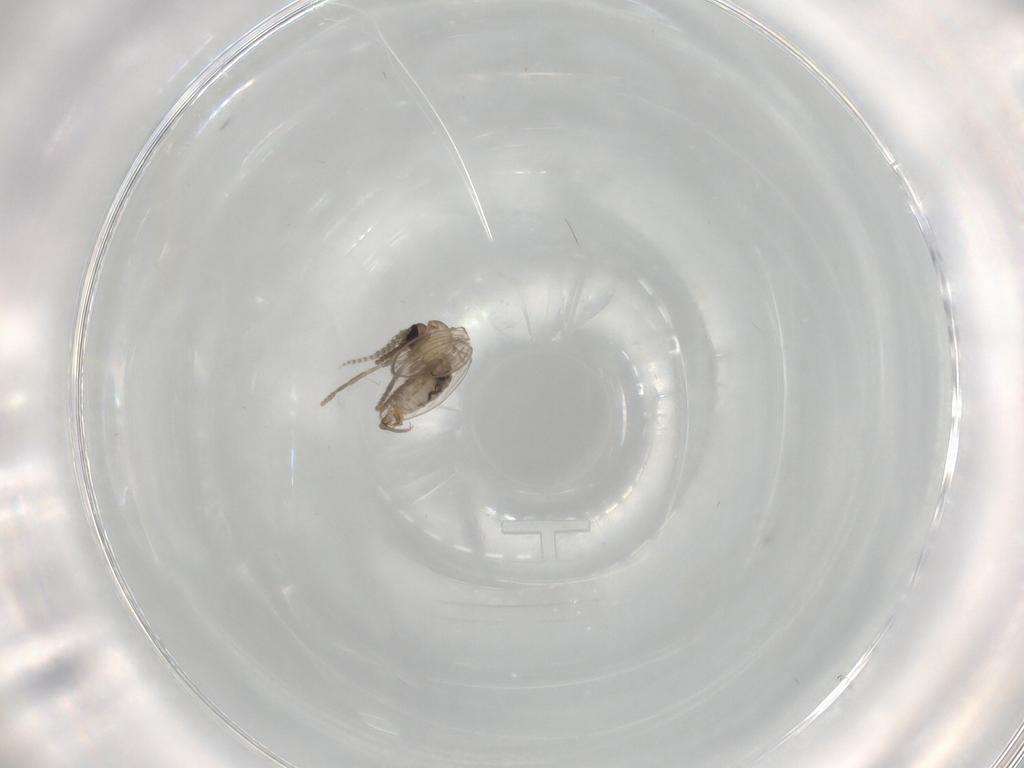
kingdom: Animalia
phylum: Arthropoda
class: Insecta
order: Diptera
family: Psychodidae
